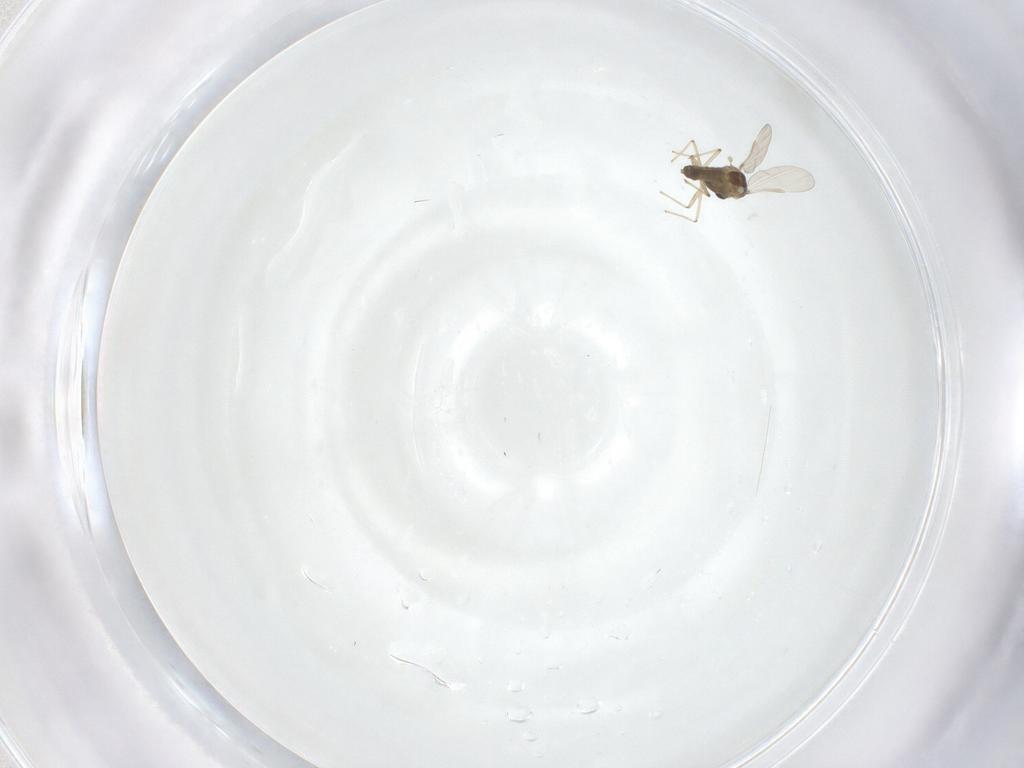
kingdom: Animalia
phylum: Arthropoda
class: Insecta
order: Diptera
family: Chironomidae
